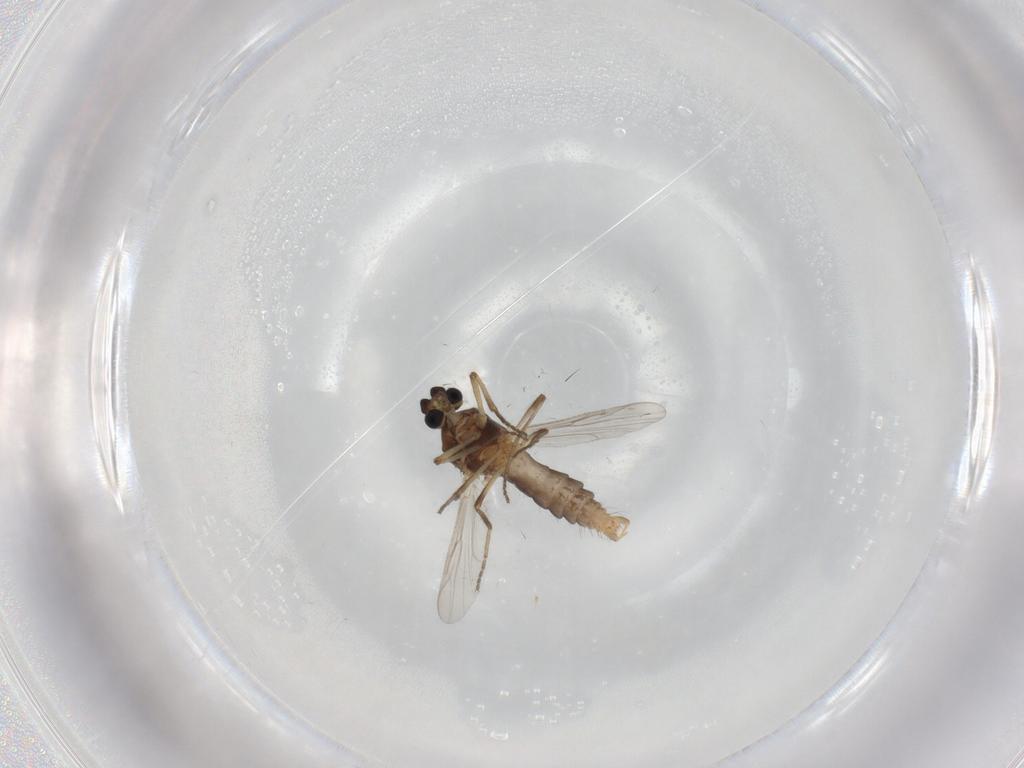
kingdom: Animalia
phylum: Arthropoda
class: Insecta
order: Diptera
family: Ceratopogonidae
